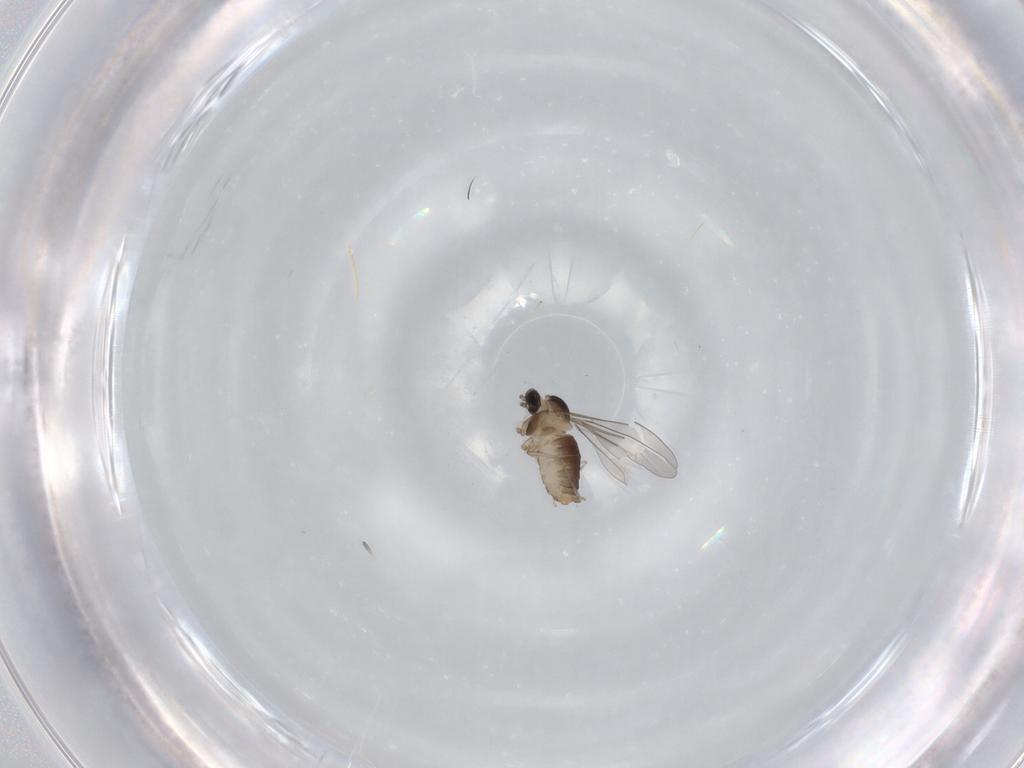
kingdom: Animalia
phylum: Arthropoda
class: Insecta
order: Diptera
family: Cecidomyiidae
